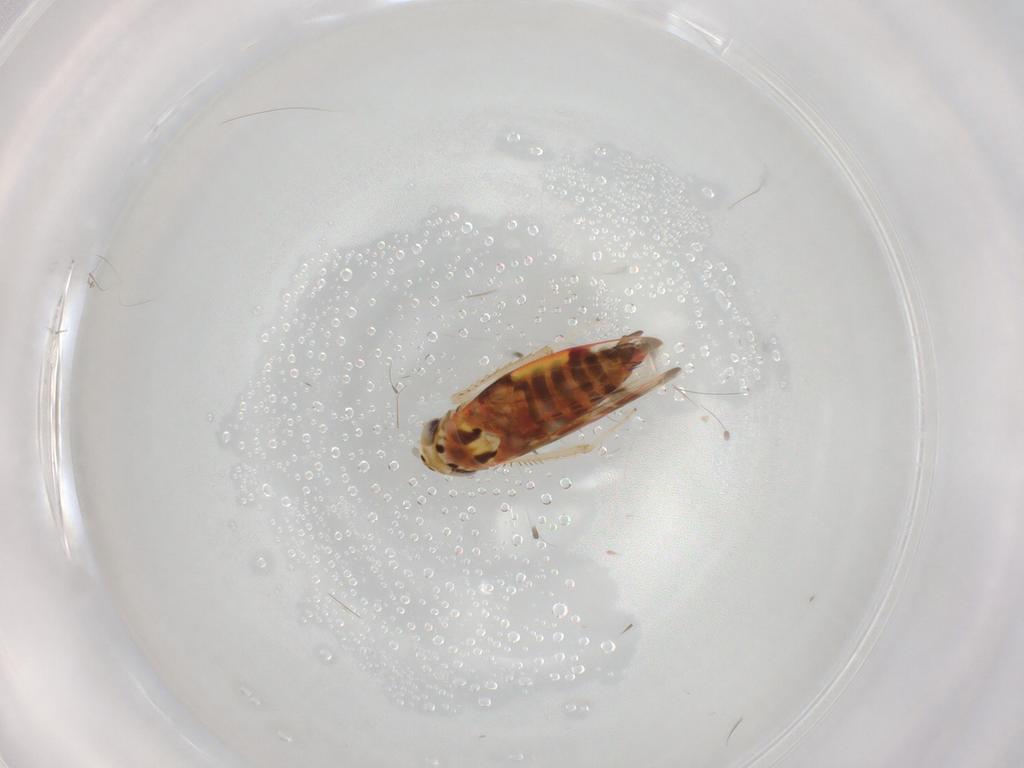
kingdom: Animalia
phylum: Arthropoda
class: Insecta
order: Hemiptera
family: Cicadellidae
